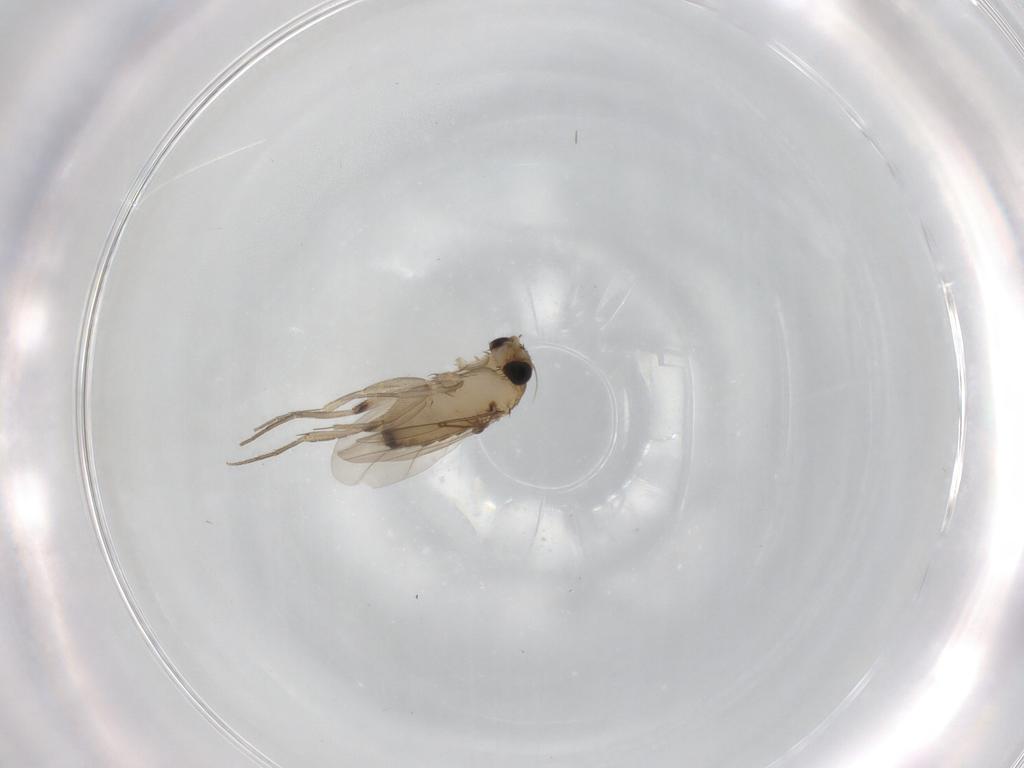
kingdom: Animalia
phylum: Arthropoda
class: Insecta
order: Diptera
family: Phoridae
